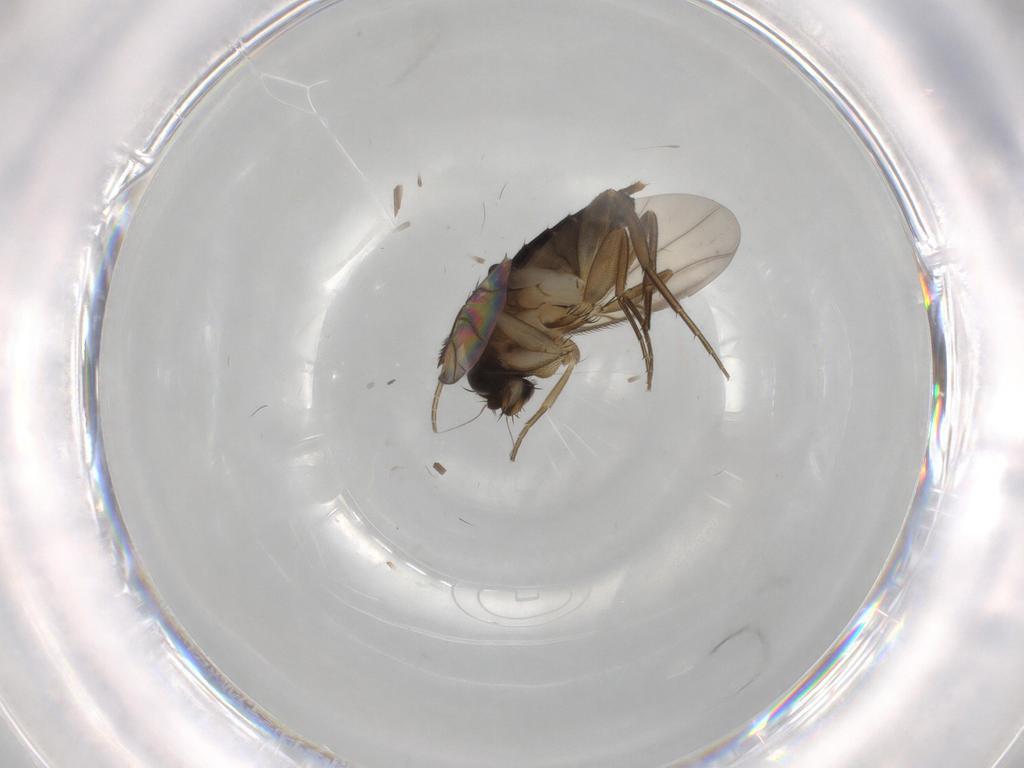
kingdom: Animalia
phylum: Arthropoda
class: Insecta
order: Diptera
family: Phoridae
